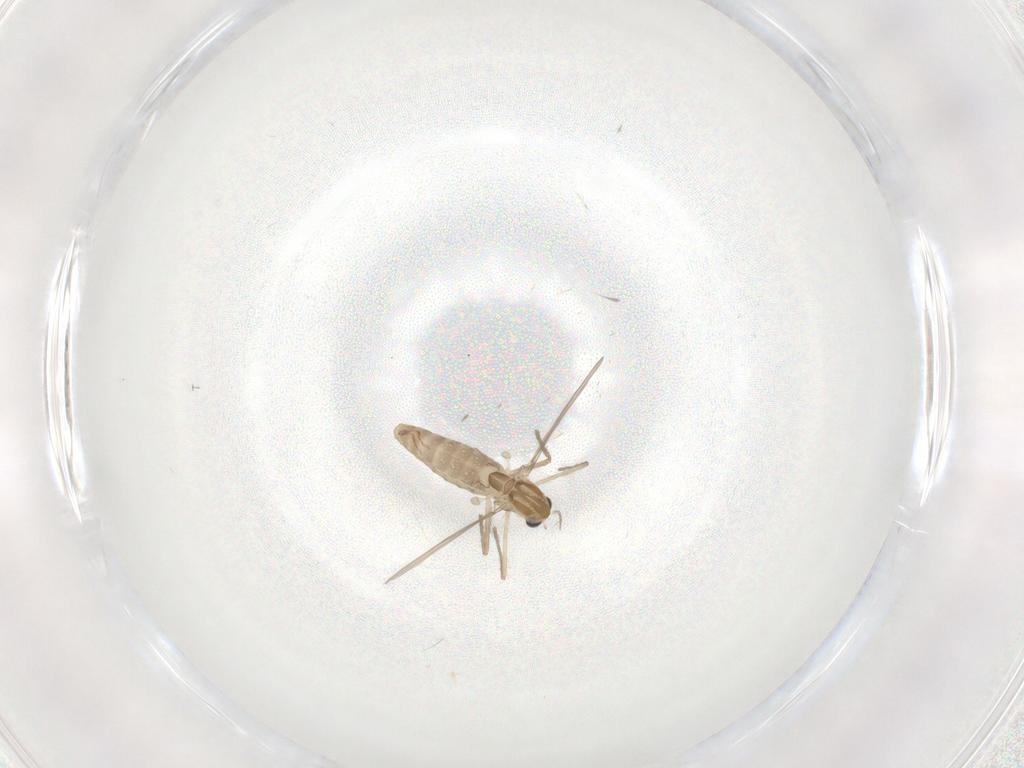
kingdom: Animalia
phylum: Arthropoda
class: Insecta
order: Diptera
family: Chironomidae
